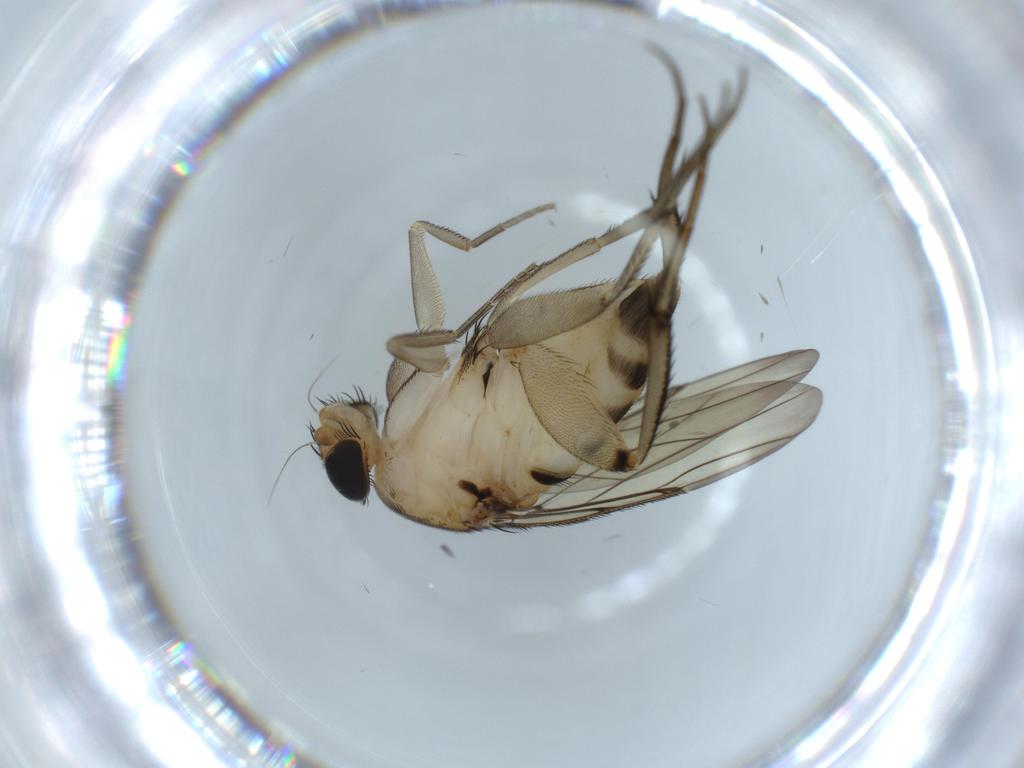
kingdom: Animalia
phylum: Arthropoda
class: Insecta
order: Diptera
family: Phoridae
